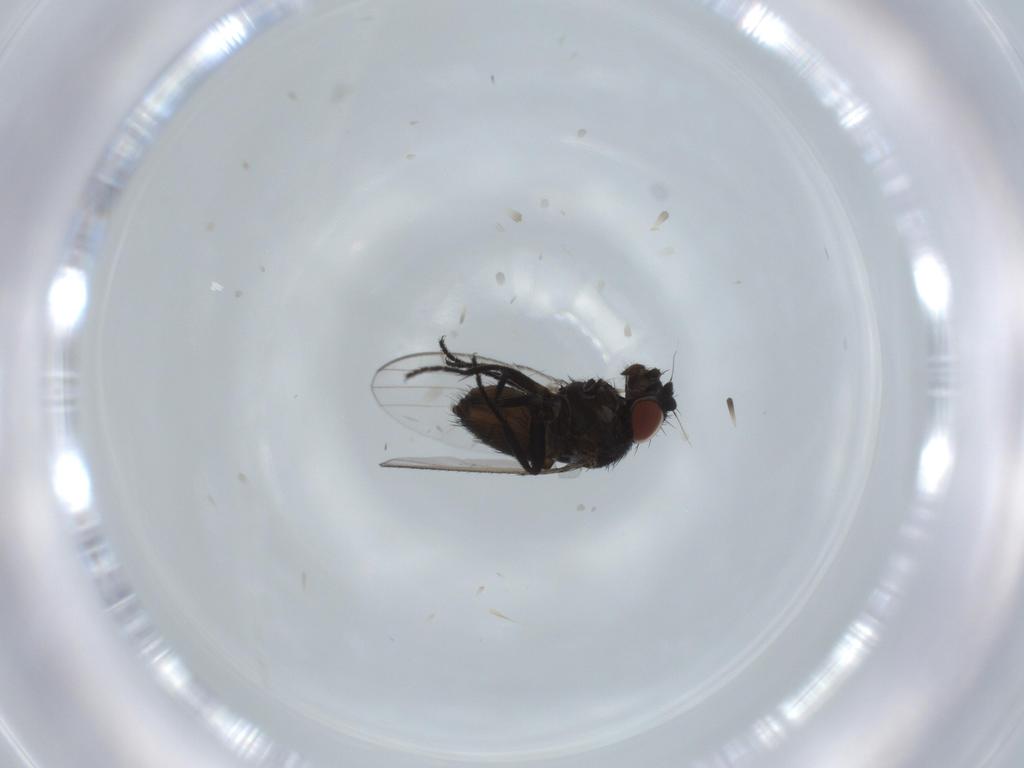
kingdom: Animalia
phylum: Arthropoda
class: Insecta
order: Diptera
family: Milichiidae
